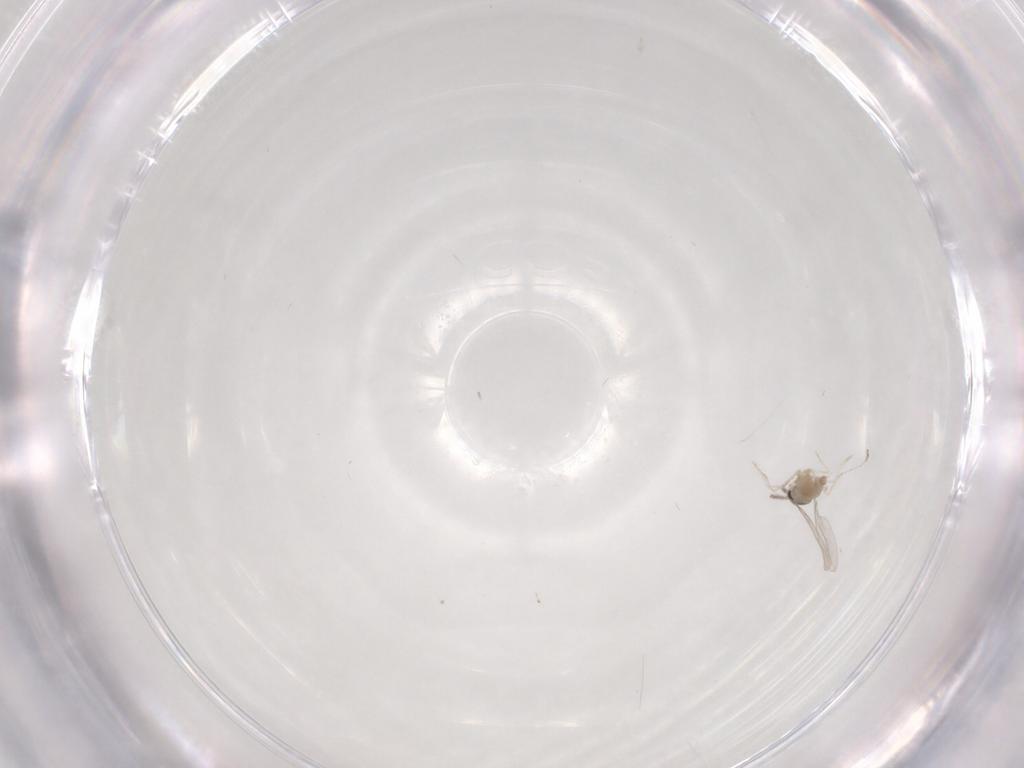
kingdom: Animalia
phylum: Arthropoda
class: Insecta
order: Diptera
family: Cecidomyiidae
